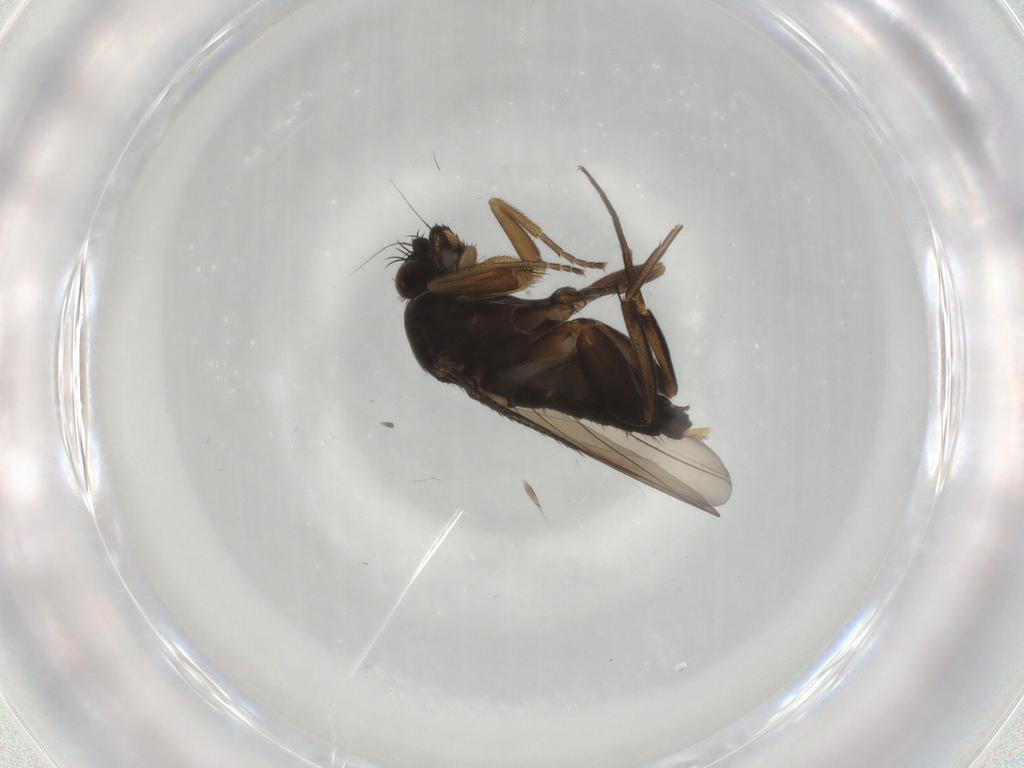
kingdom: Animalia
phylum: Arthropoda
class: Insecta
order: Diptera
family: Phoridae
